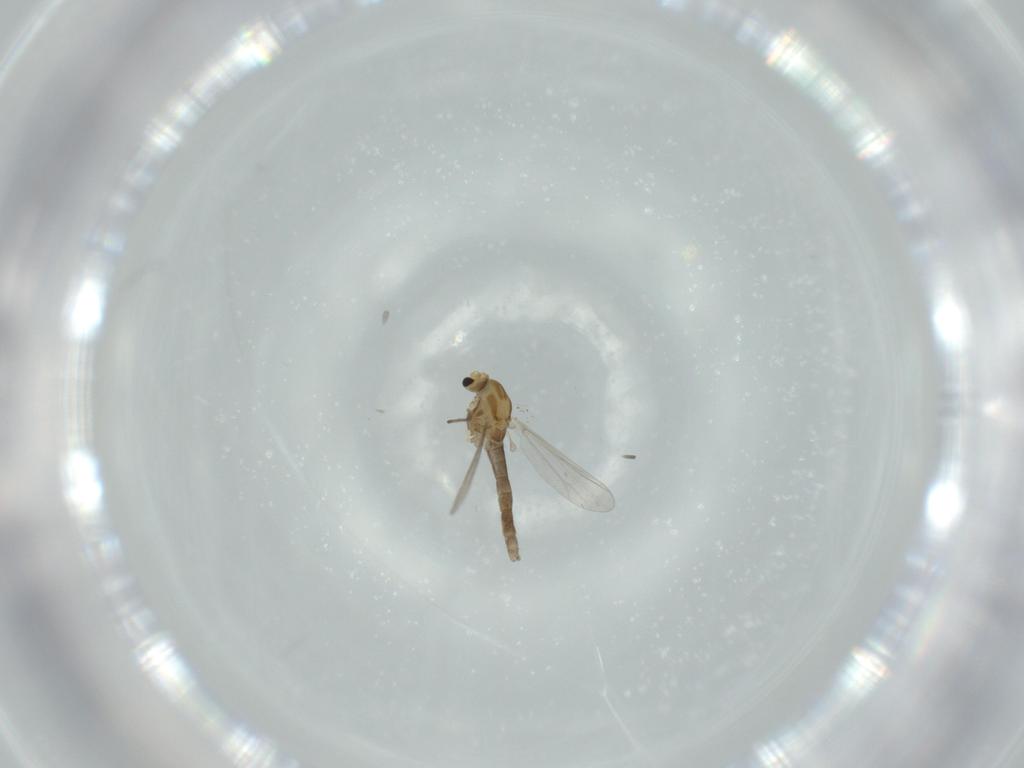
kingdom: Animalia
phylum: Arthropoda
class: Insecta
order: Diptera
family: Chironomidae
